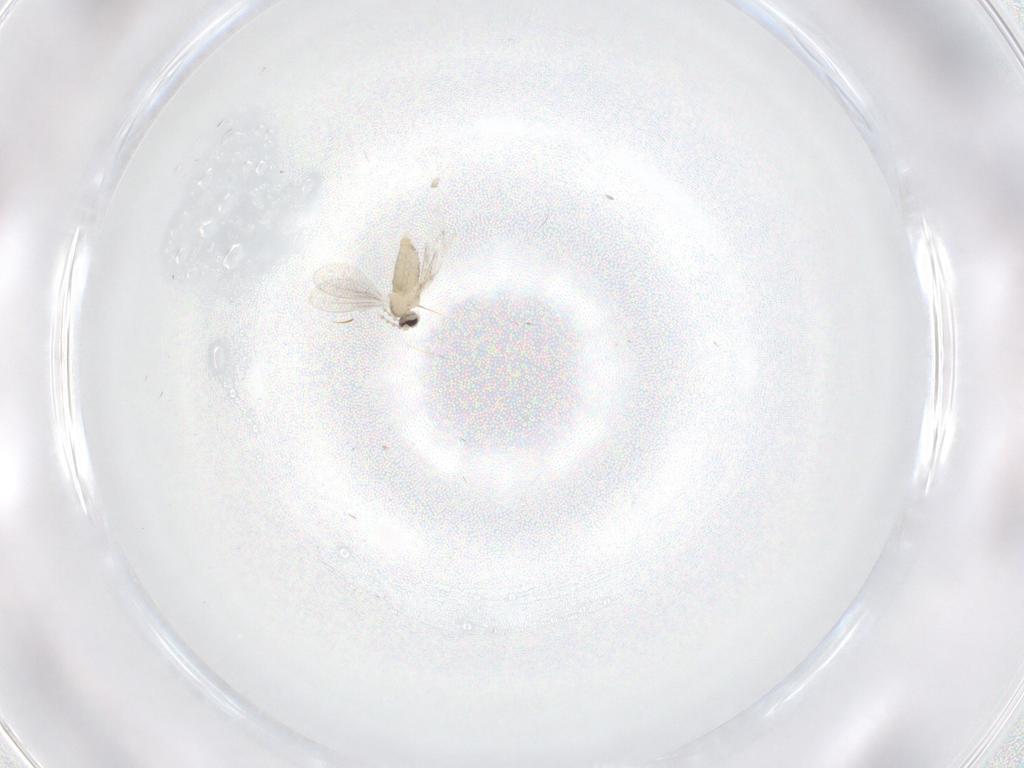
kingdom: Animalia
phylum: Arthropoda
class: Insecta
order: Diptera
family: Cecidomyiidae
